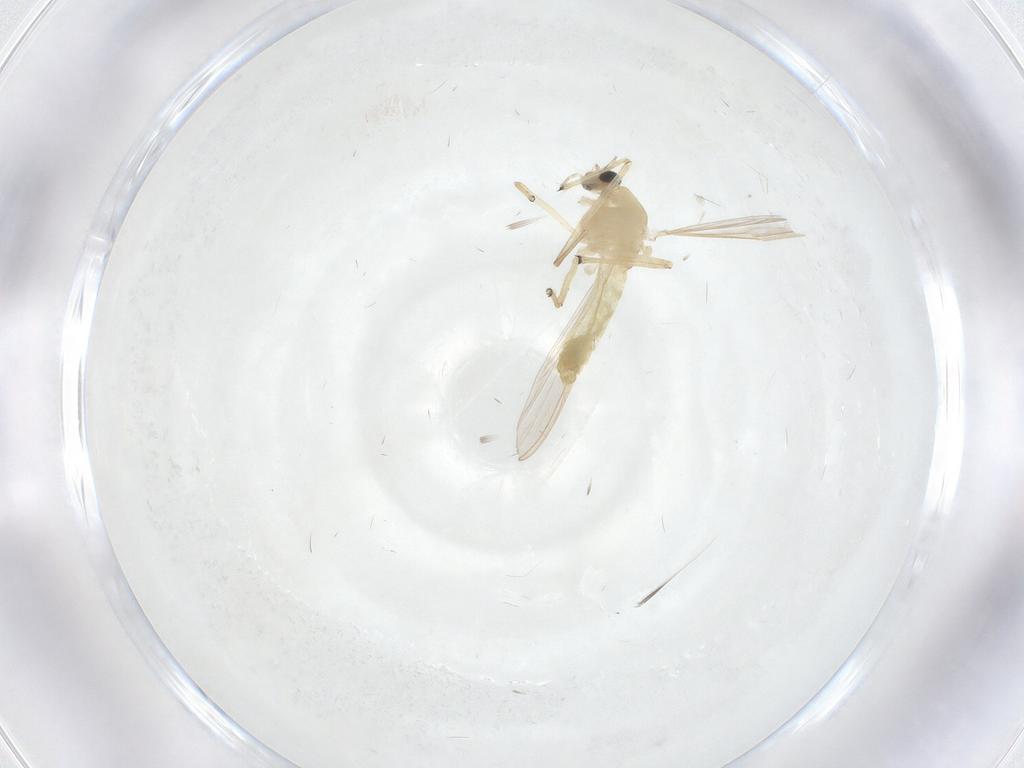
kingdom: Animalia
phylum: Arthropoda
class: Insecta
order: Diptera
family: Chironomidae
